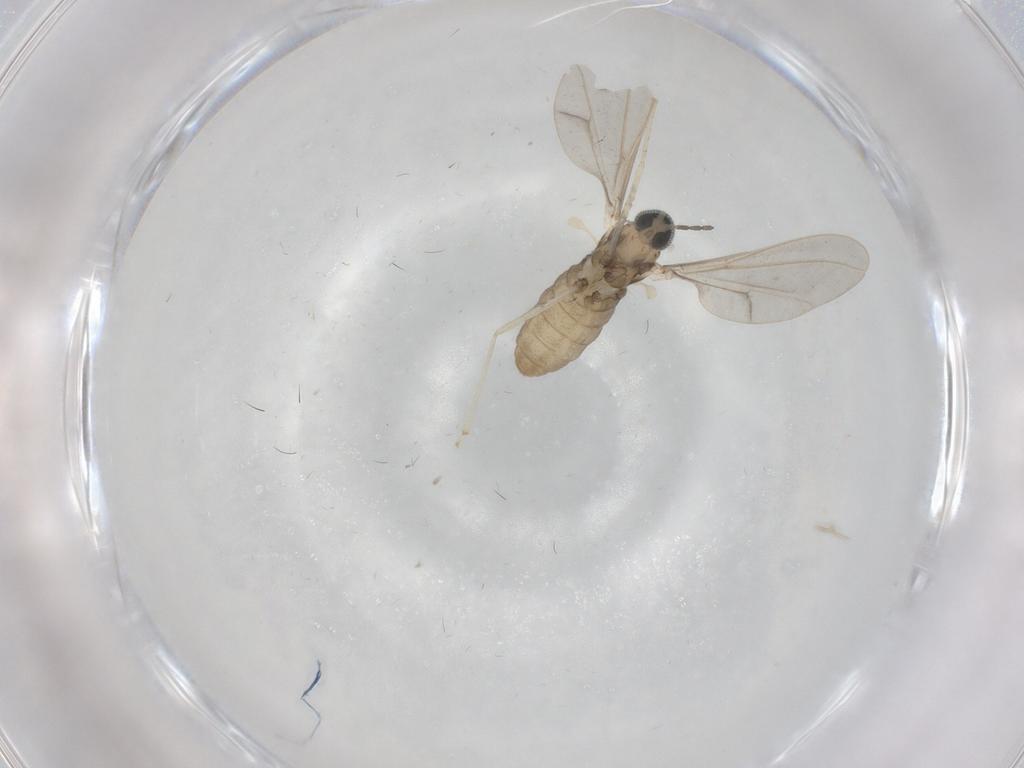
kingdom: Animalia
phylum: Arthropoda
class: Insecta
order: Diptera
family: Cecidomyiidae
